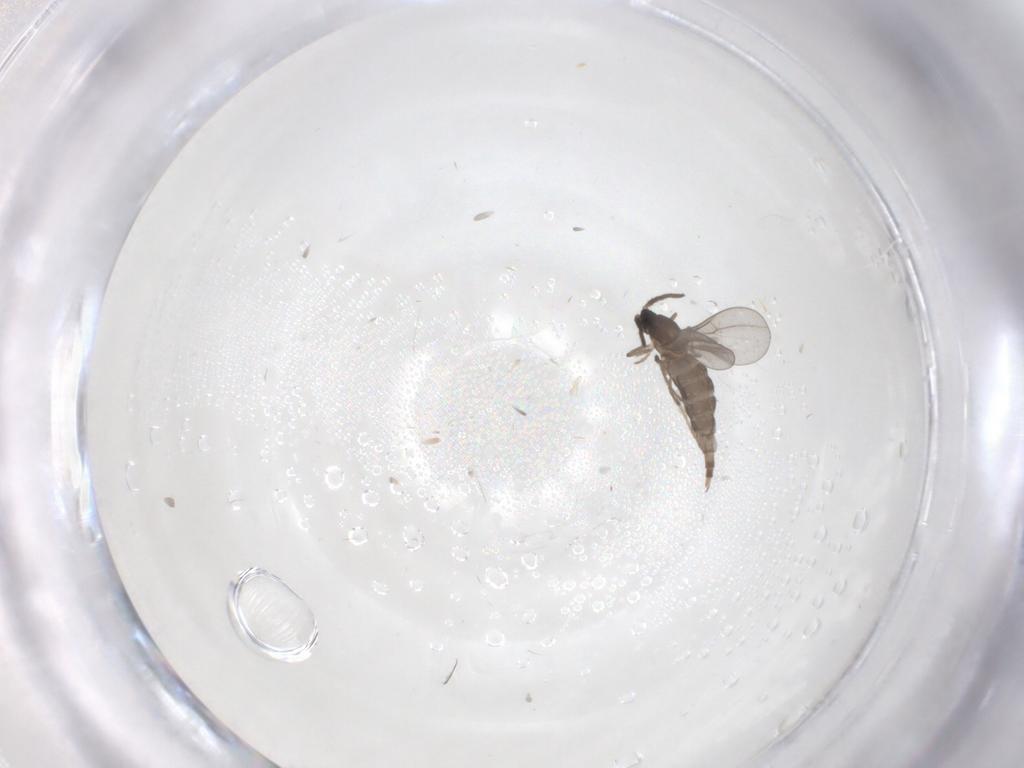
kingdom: Animalia
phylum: Arthropoda
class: Insecta
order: Diptera
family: Cecidomyiidae
